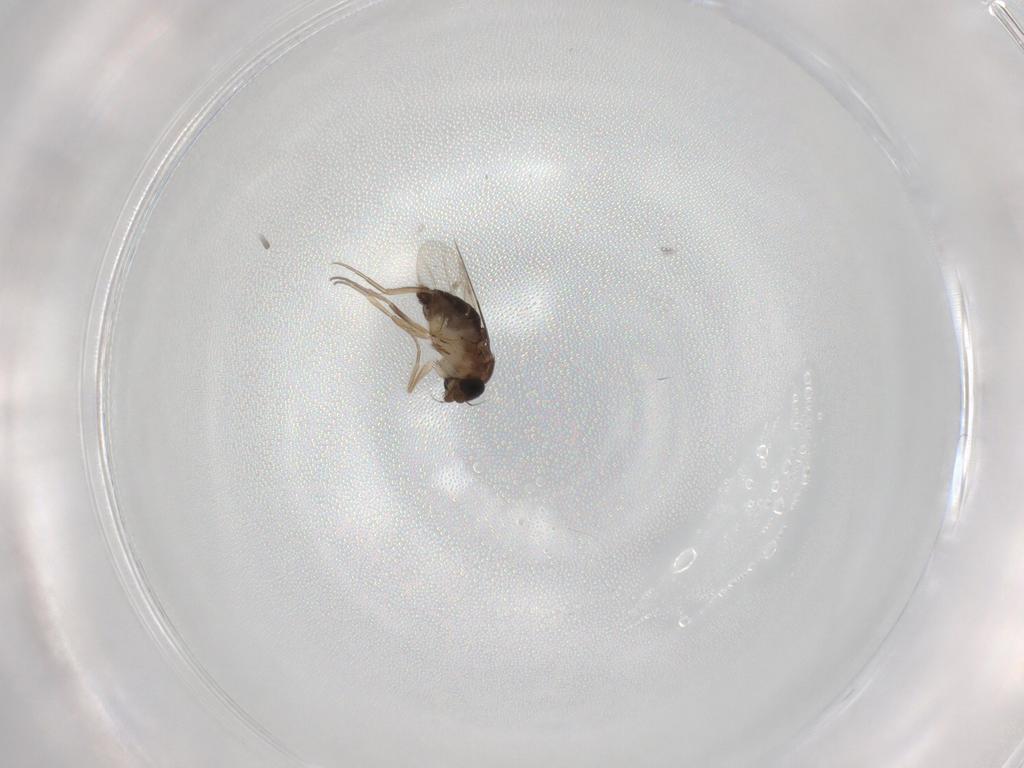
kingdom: Animalia
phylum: Arthropoda
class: Insecta
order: Diptera
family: Phoridae
